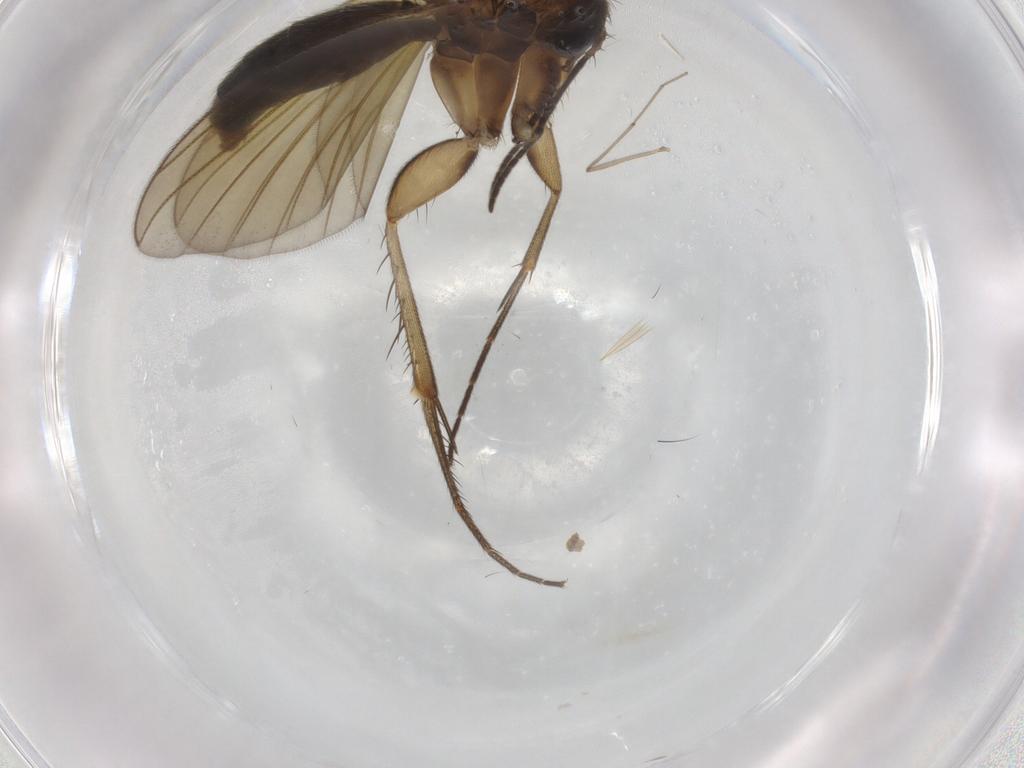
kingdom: Animalia
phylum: Arthropoda
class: Insecta
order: Diptera
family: Mycetophilidae
